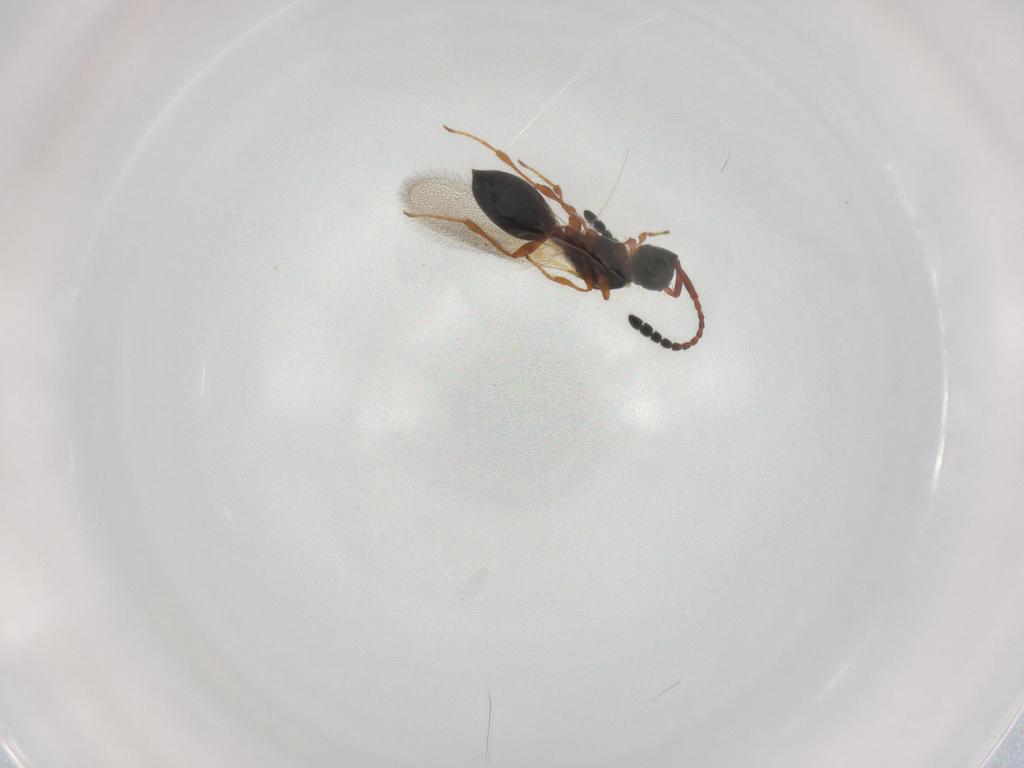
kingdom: Animalia
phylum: Arthropoda
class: Insecta
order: Hymenoptera
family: Diapriidae
